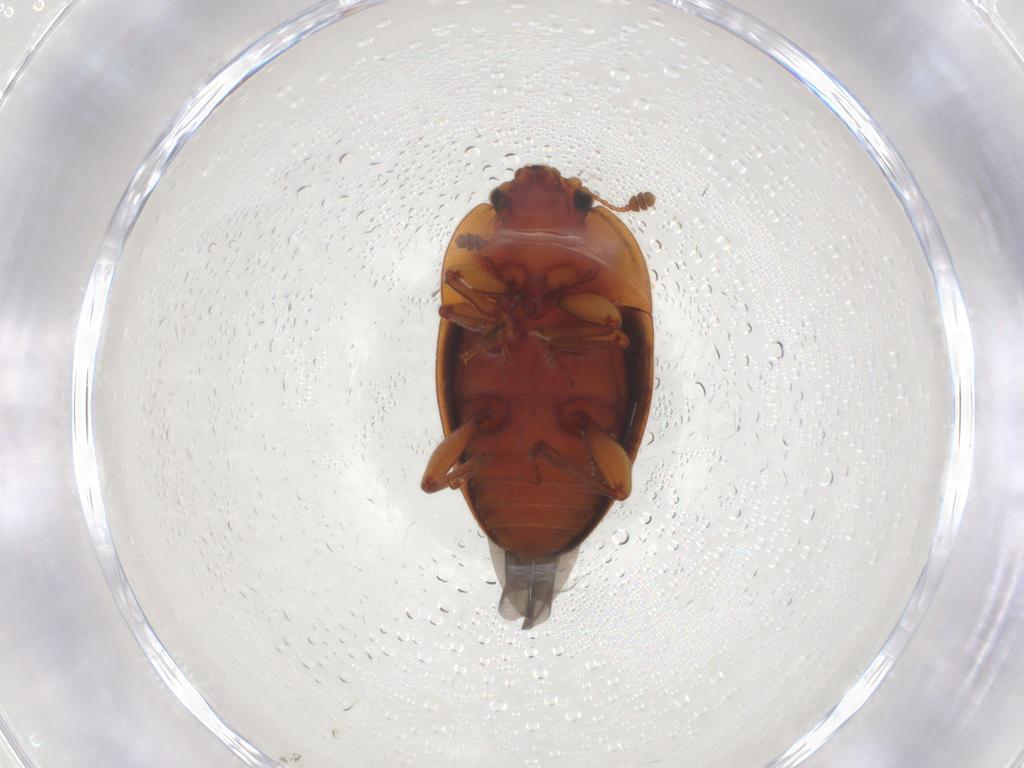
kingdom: Animalia
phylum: Arthropoda
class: Insecta
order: Coleoptera
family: Nitidulidae
